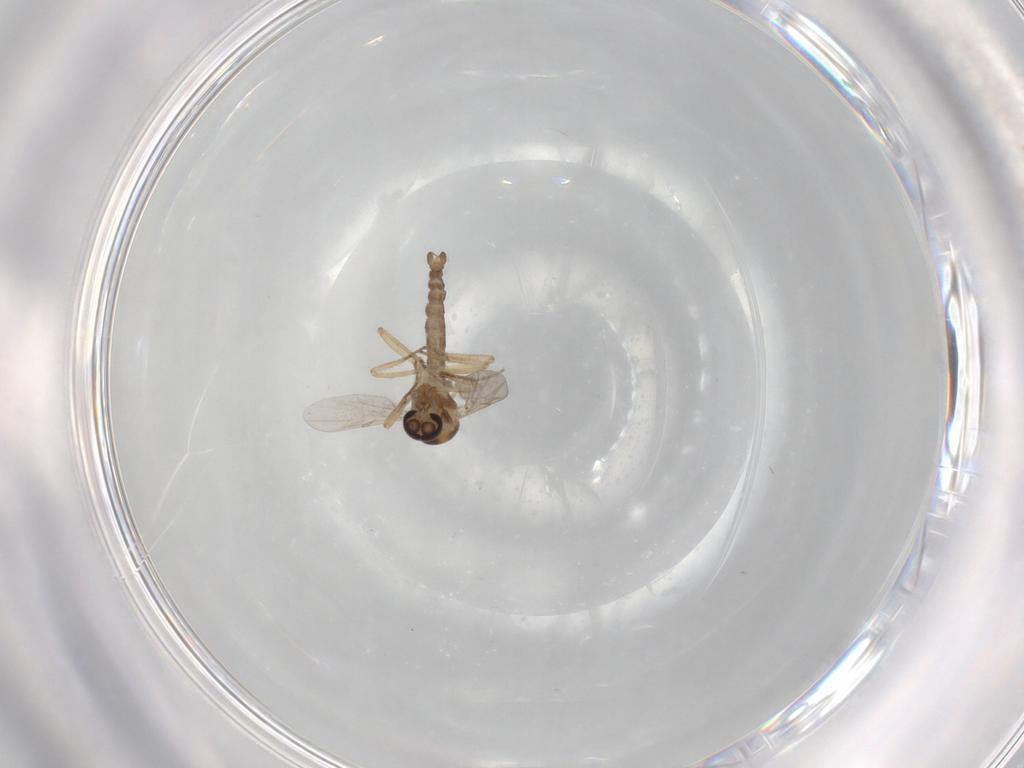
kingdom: Animalia
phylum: Arthropoda
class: Insecta
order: Diptera
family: Ceratopogonidae
